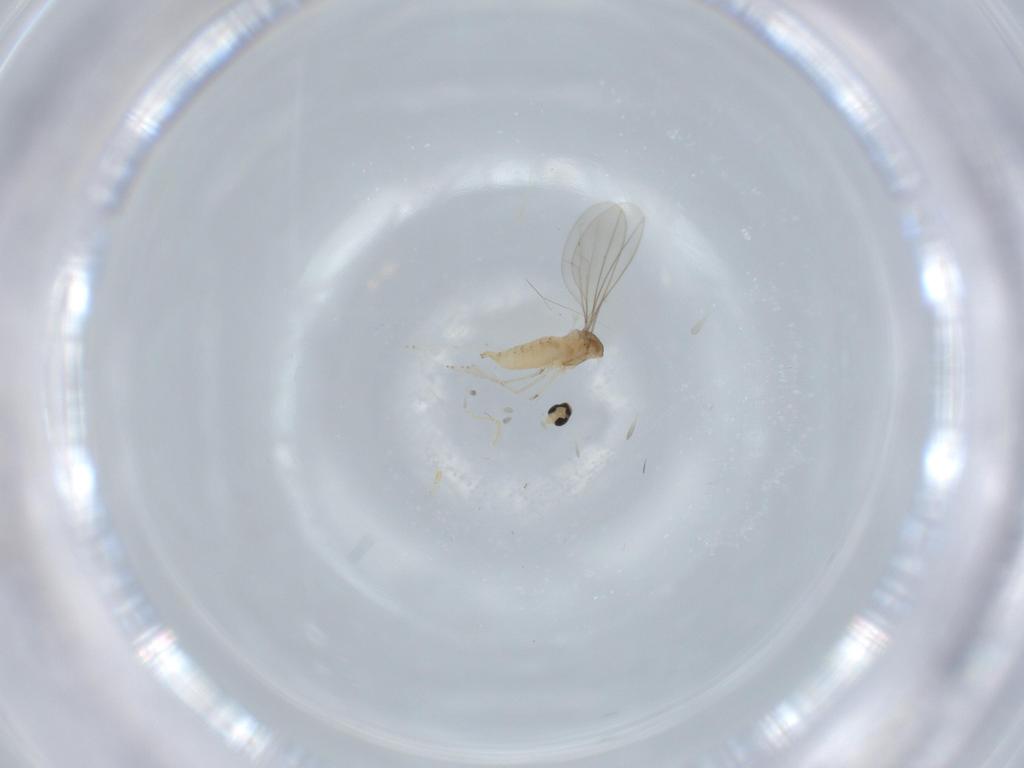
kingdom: Animalia
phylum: Arthropoda
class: Insecta
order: Diptera
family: Cecidomyiidae
